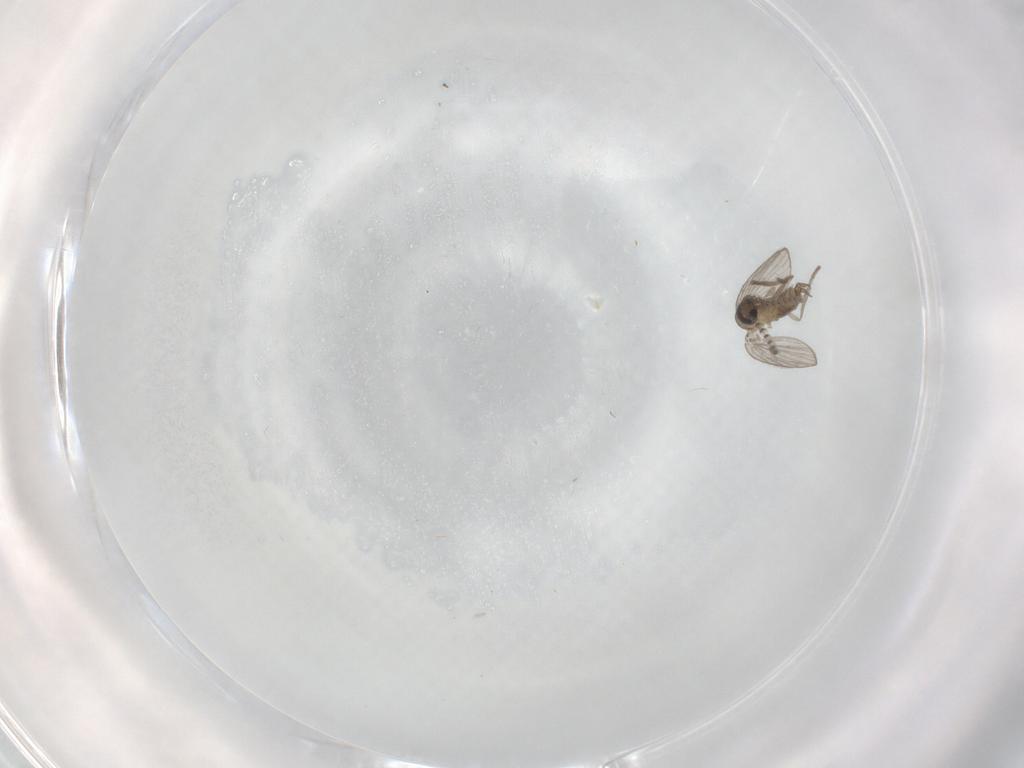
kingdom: Animalia
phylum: Arthropoda
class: Insecta
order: Diptera
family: Psychodidae
